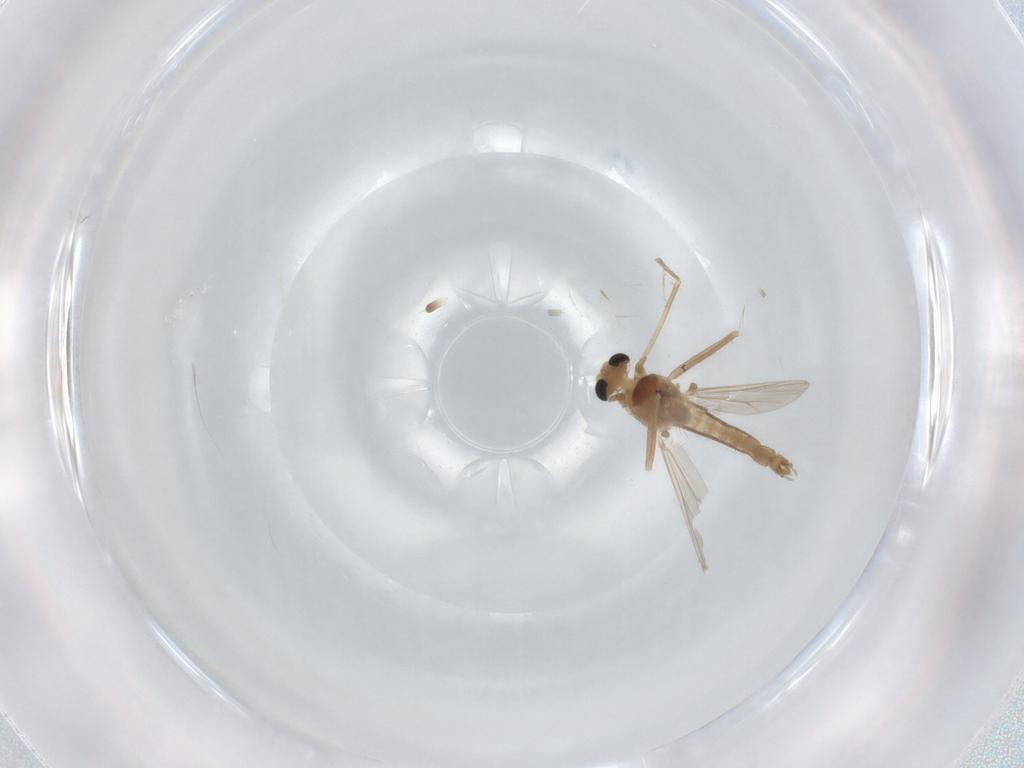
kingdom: Animalia
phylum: Arthropoda
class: Insecta
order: Diptera
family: Chironomidae
